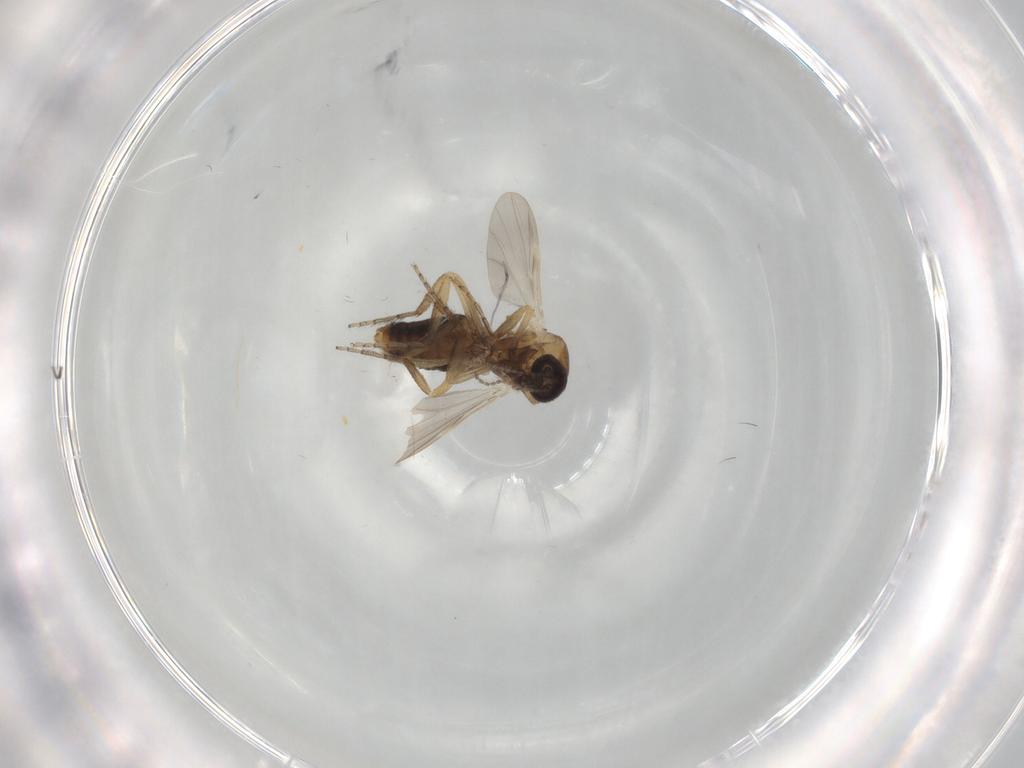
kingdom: Animalia
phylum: Arthropoda
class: Insecta
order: Diptera
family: Ceratopogonidae
